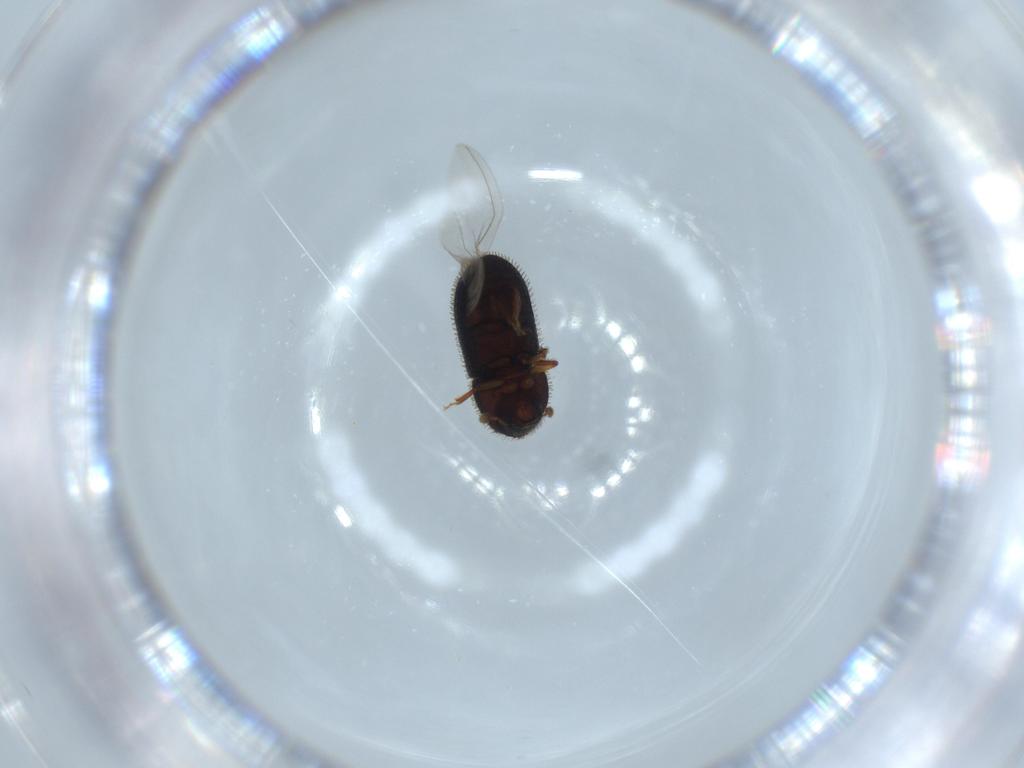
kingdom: Animalia
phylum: Arthropoda
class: Insecta
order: Coleoptera
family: Curculionidae
